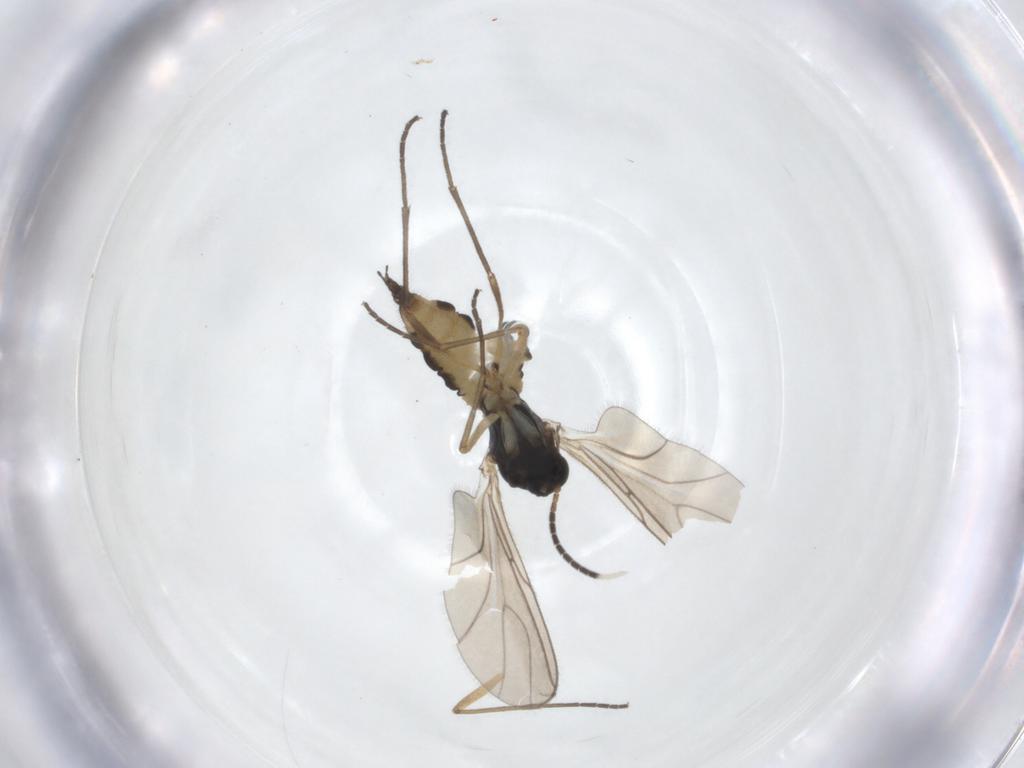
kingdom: Animalia
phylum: Arthropoda
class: Insecta
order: Diptera
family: Sciaridae
